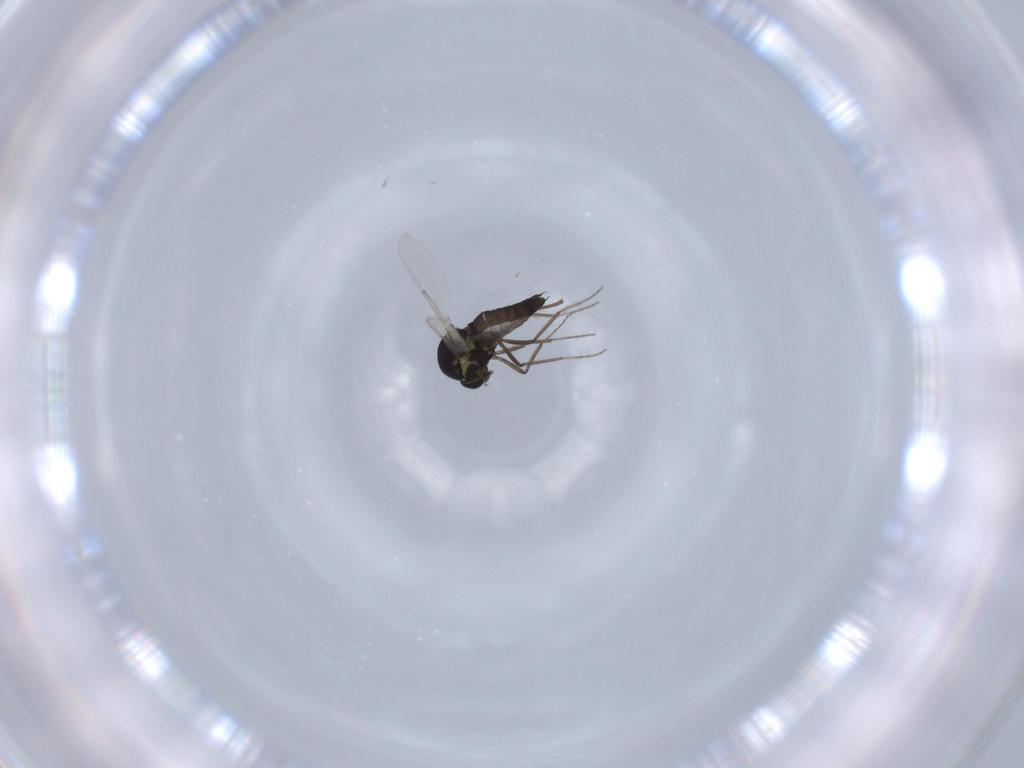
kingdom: Animalia
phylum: Arthropoda
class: Insecta
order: Diptera
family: Ceratopogonidae
